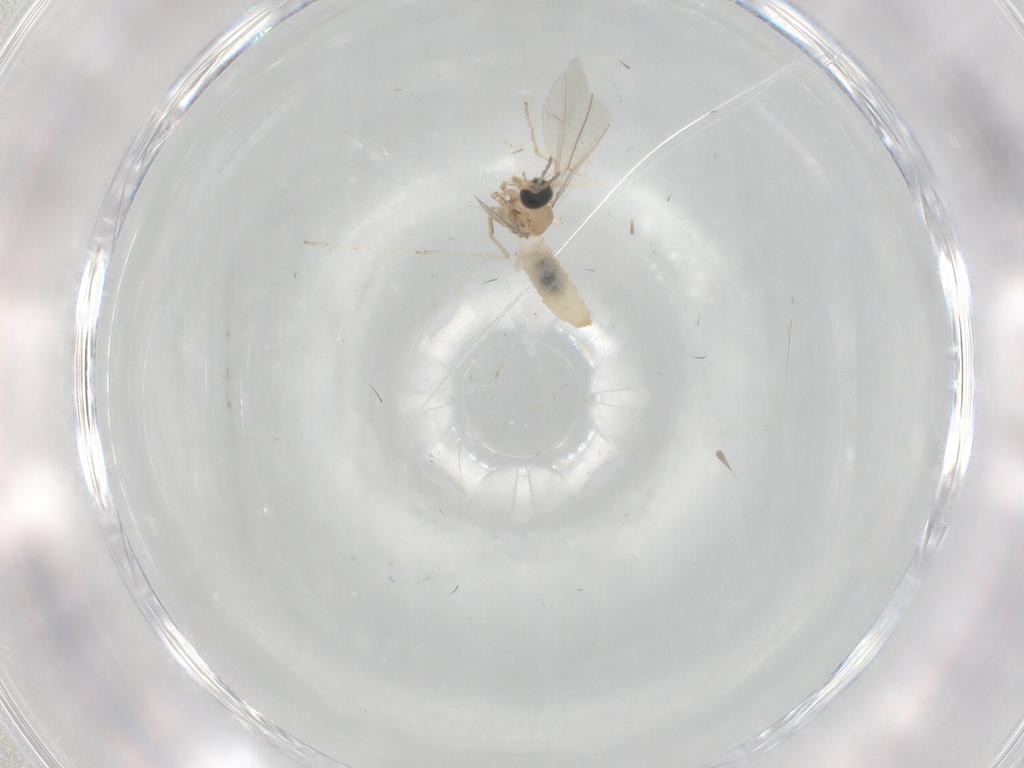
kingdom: Animalia
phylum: Arthropoda
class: Insecta
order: Diptera
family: Cecidomyiidae
